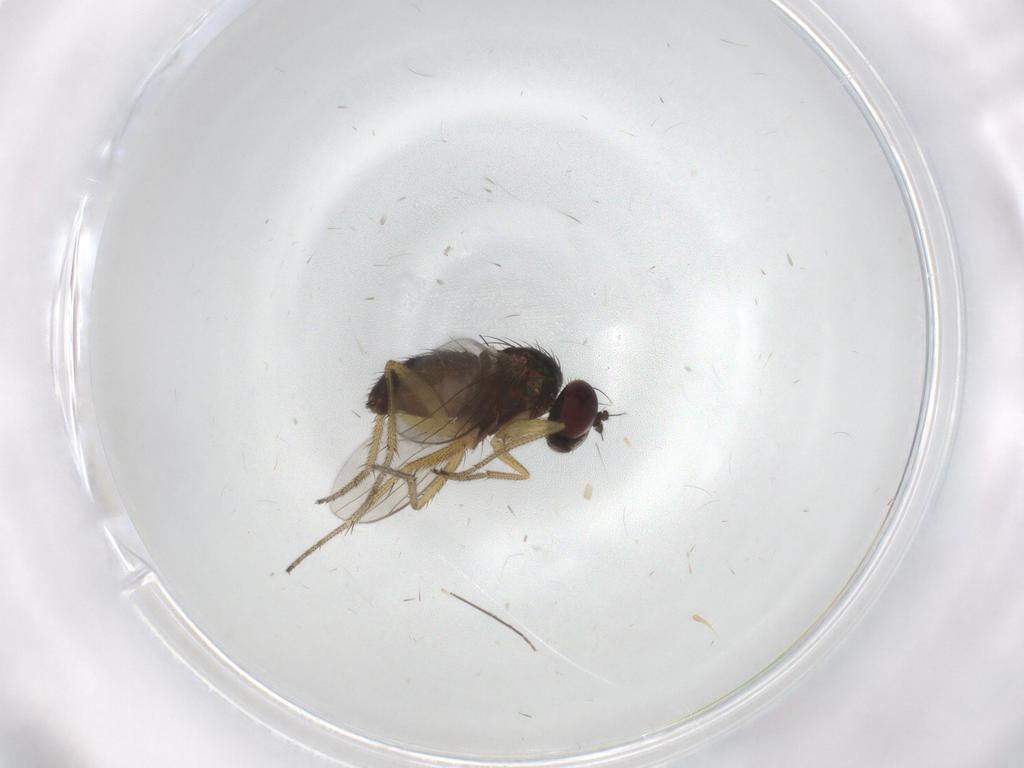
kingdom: Animalia
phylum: Arthropoda
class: Insecta
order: Diptera
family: Chironomidae
